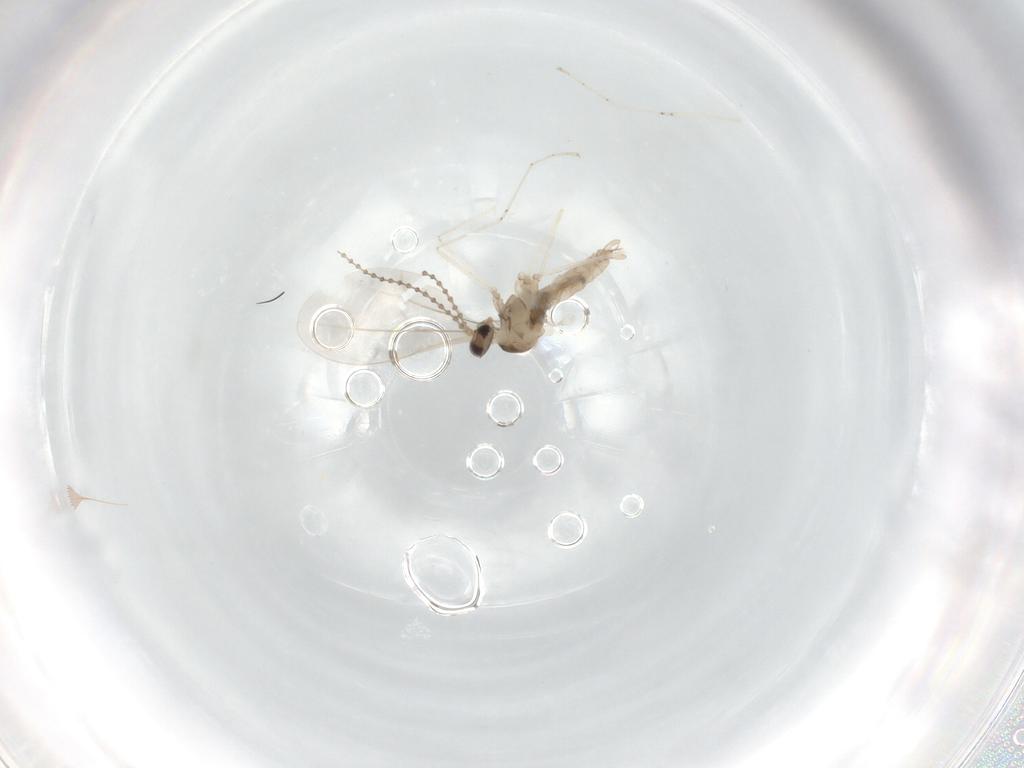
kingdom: Animalia
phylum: Arthropoda
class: Insecta
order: Diptera
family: Cecidomyiidae
